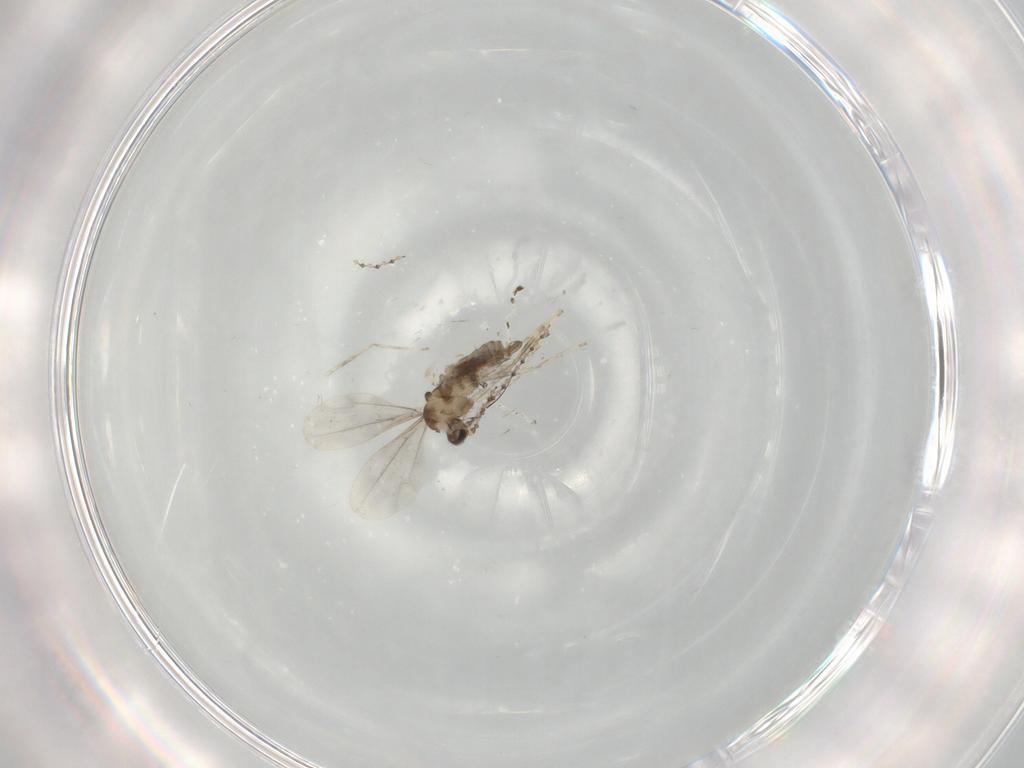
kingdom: Animalia
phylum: Arthropoda
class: Insecta
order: Diptera
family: Cecidomyiidae
